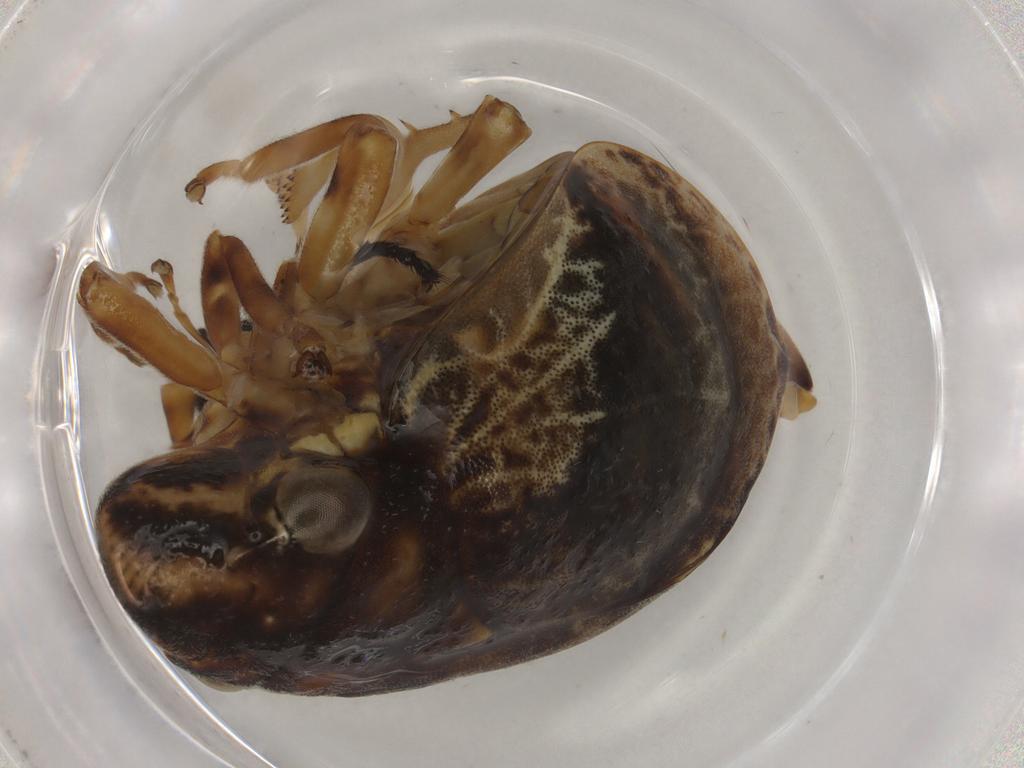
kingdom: Animalia
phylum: Arthropoda
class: Insecta
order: Hemiptera
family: Aphrophoridae
